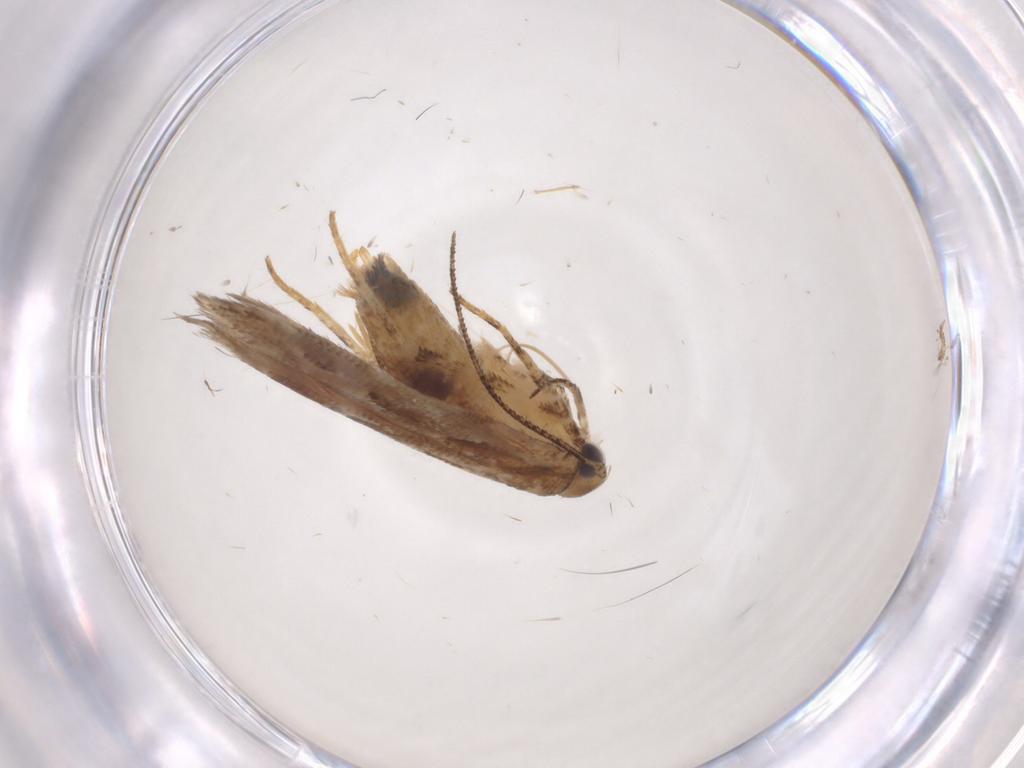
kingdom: Animalia
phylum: Arthropoda
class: Insecta
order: Lepidoptera
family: Gelechiidae
